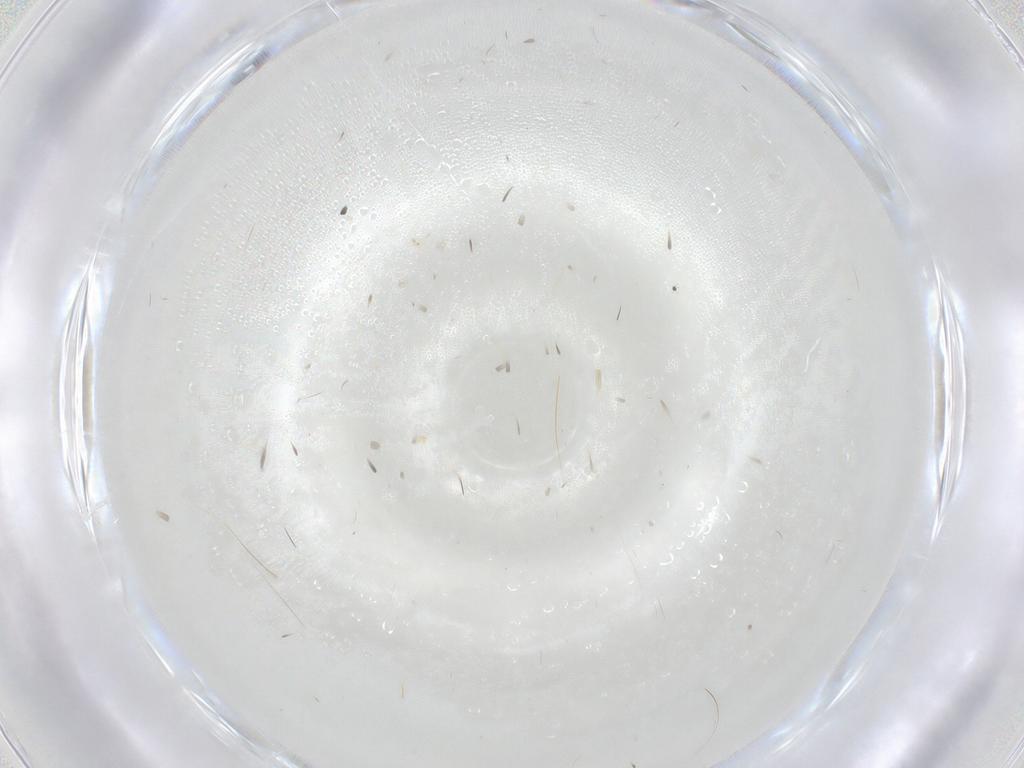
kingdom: Animalia
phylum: Arthropoda
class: Insecta
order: Diptera
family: Limoniidae
